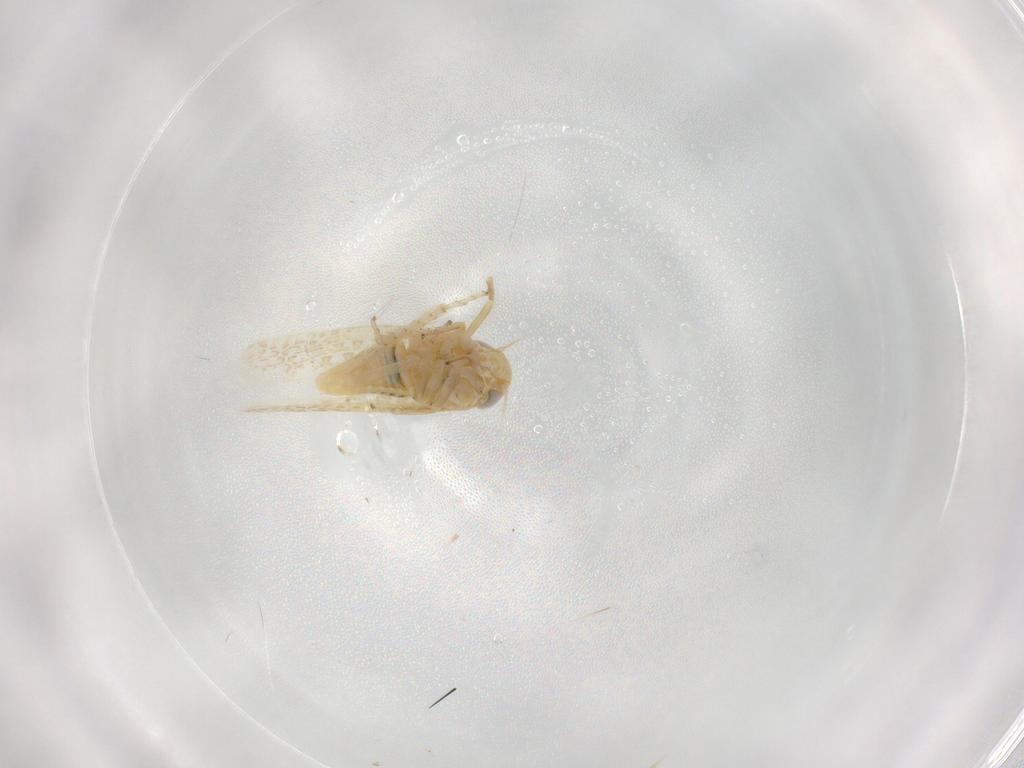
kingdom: Animalia
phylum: Arthropoda
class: Insecta
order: Hemiptera
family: Cicadellidae
